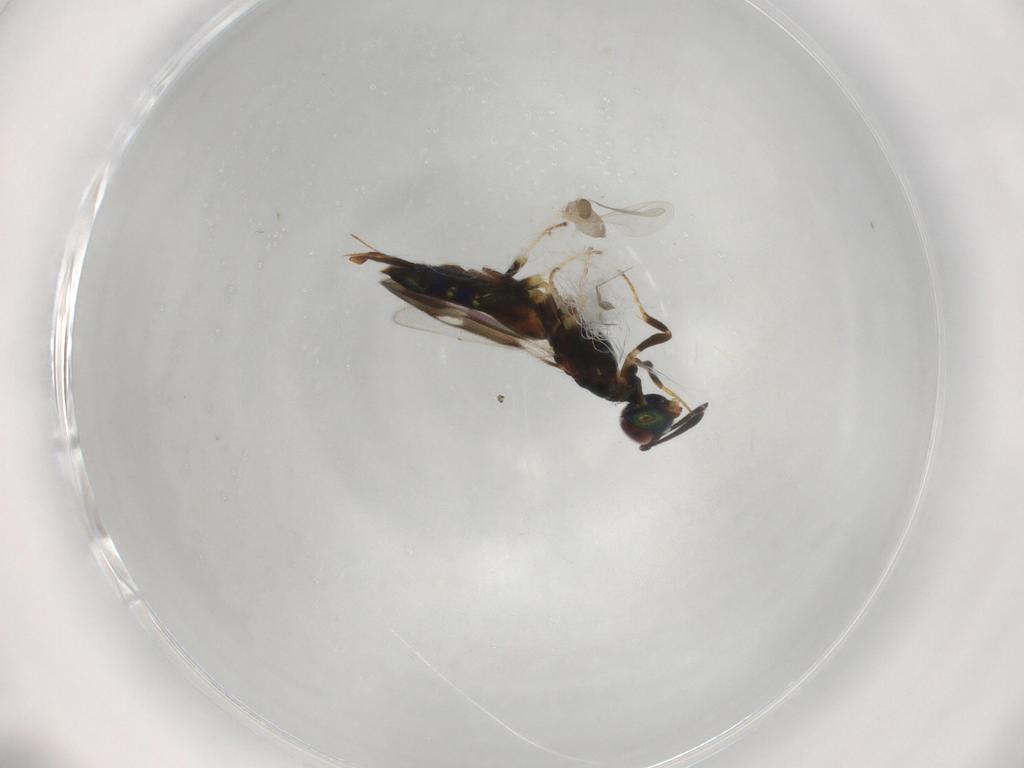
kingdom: Animalia
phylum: Arthropoda
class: Insecta
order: Diptera
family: Cecidomyiidae
